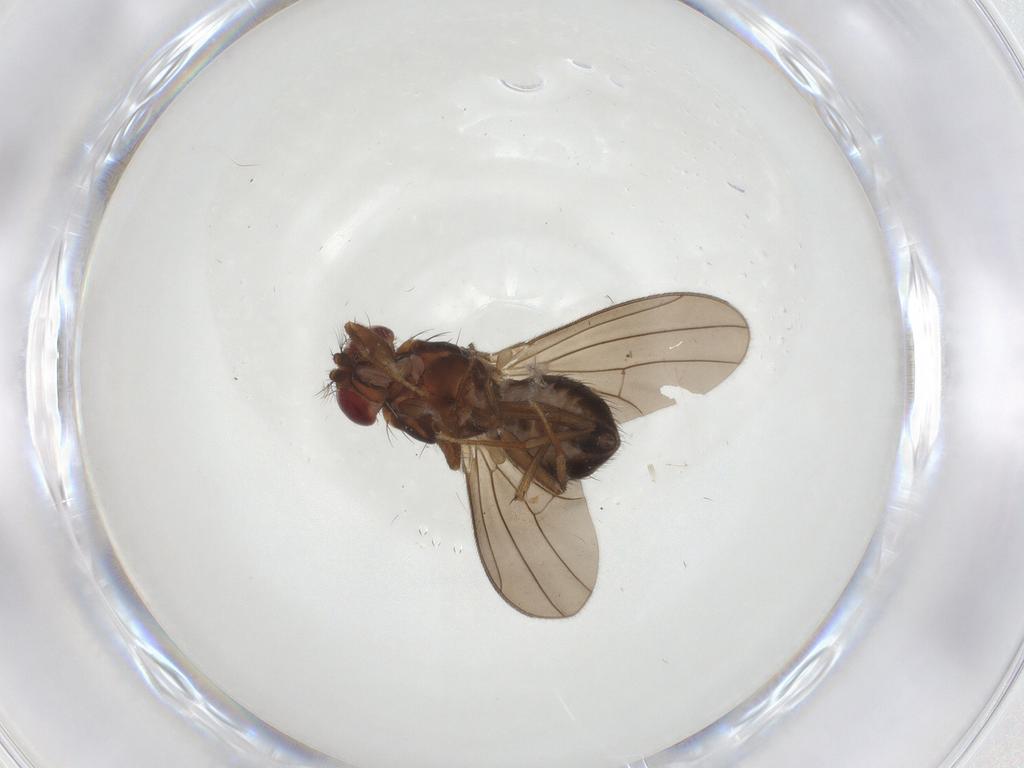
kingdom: Animalia
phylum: Arthropoda
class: Insecta
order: Diptera
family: Drosophilidae
